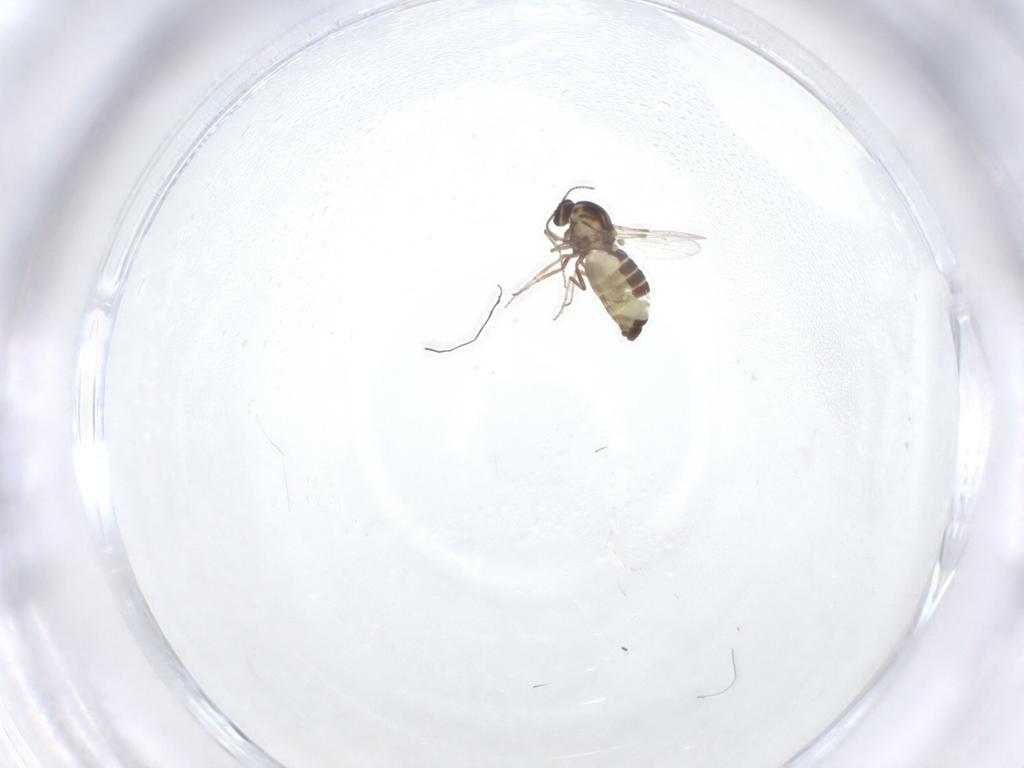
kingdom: Animalia
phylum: Arthropoda
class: Insecta
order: Diptera
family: Ceratopogonidae
